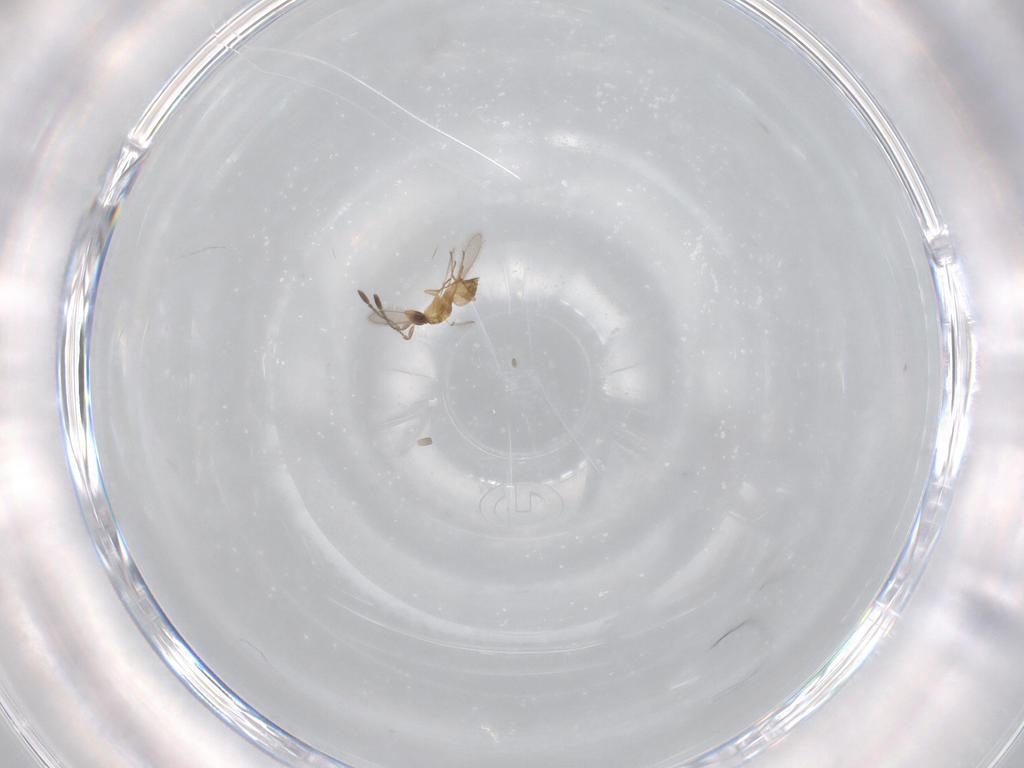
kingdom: Animalia
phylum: Arthropoda
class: Insecta
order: Hymenoptera
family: Mymaridae
